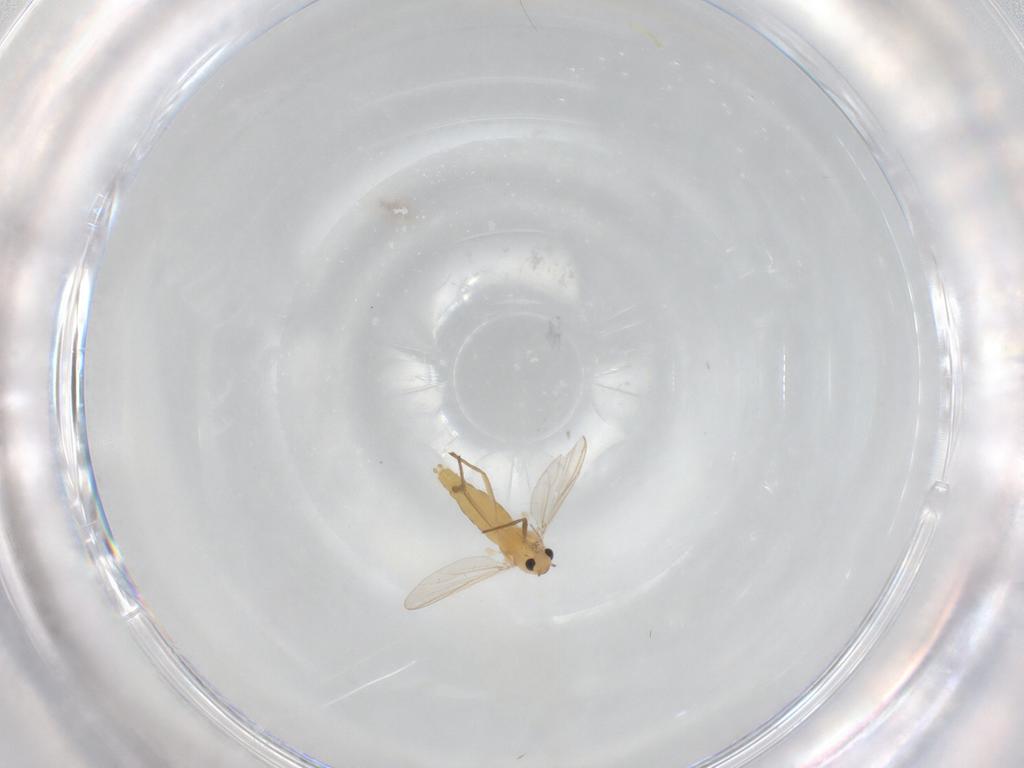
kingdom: Animalia
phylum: Arthropoda
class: Insecta
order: Diptera
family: Chironomidae
